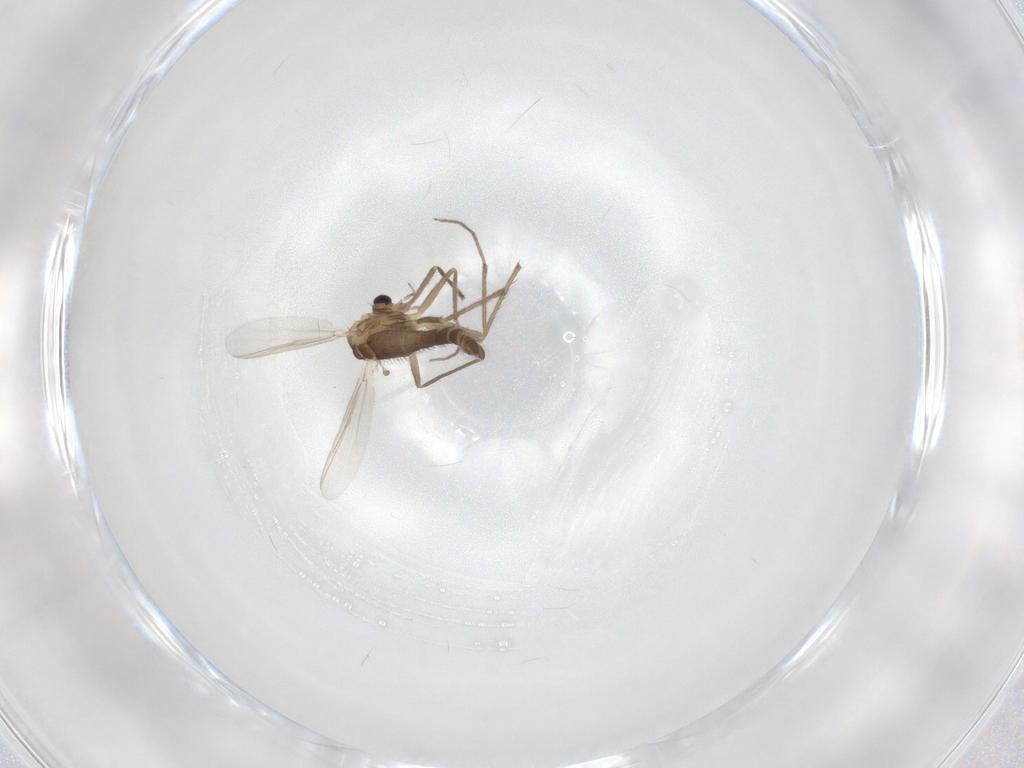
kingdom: Animalia
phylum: Arthropoda
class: Insecta
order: Diptera
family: Chironomidae
